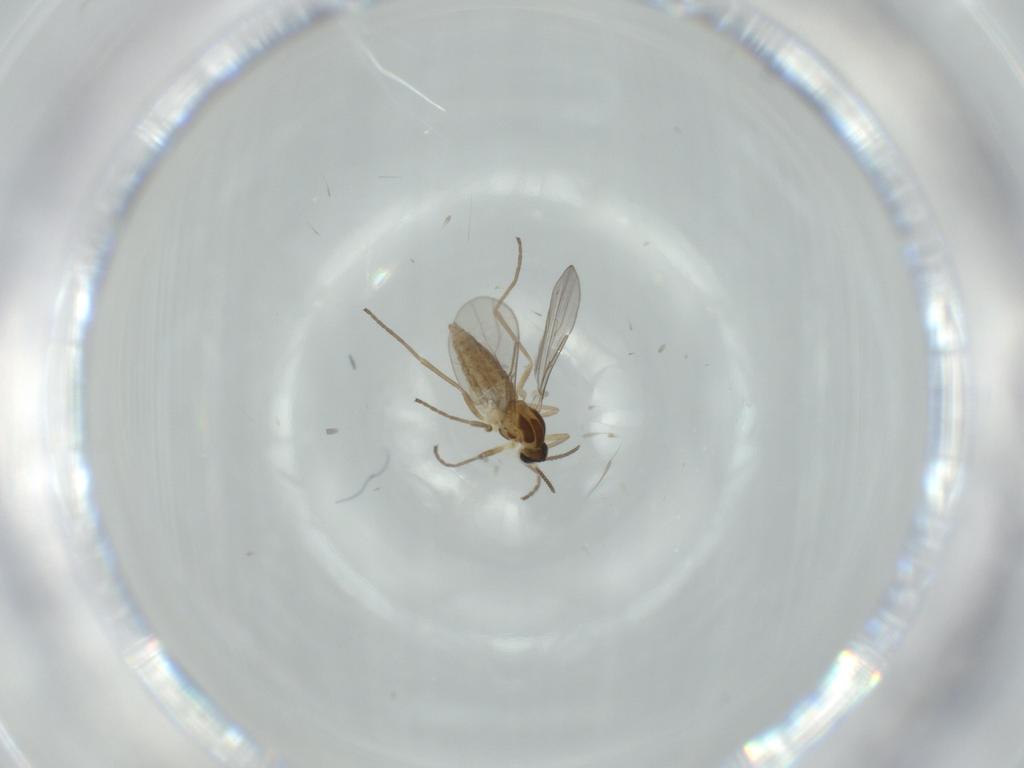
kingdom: Animalia
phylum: Arthropoda
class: Insecta
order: Diptera
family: Cecidomyiidae
